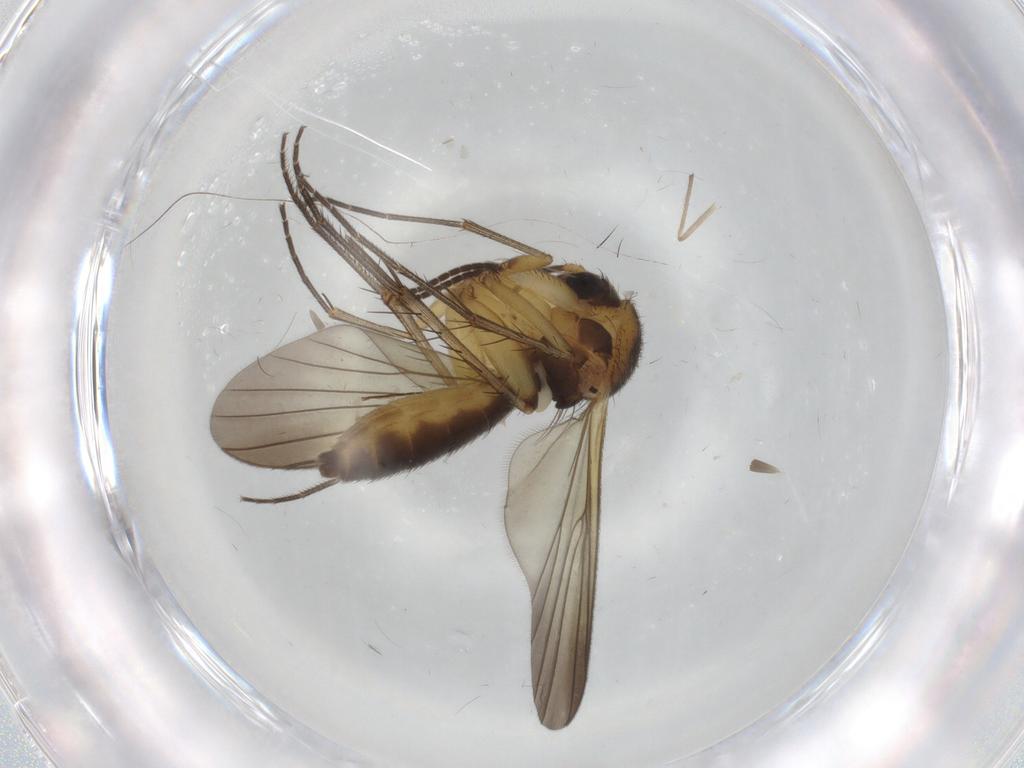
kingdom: Animalia
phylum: Arthropoda
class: Insecta
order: Diptera
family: Mycetophilidae
